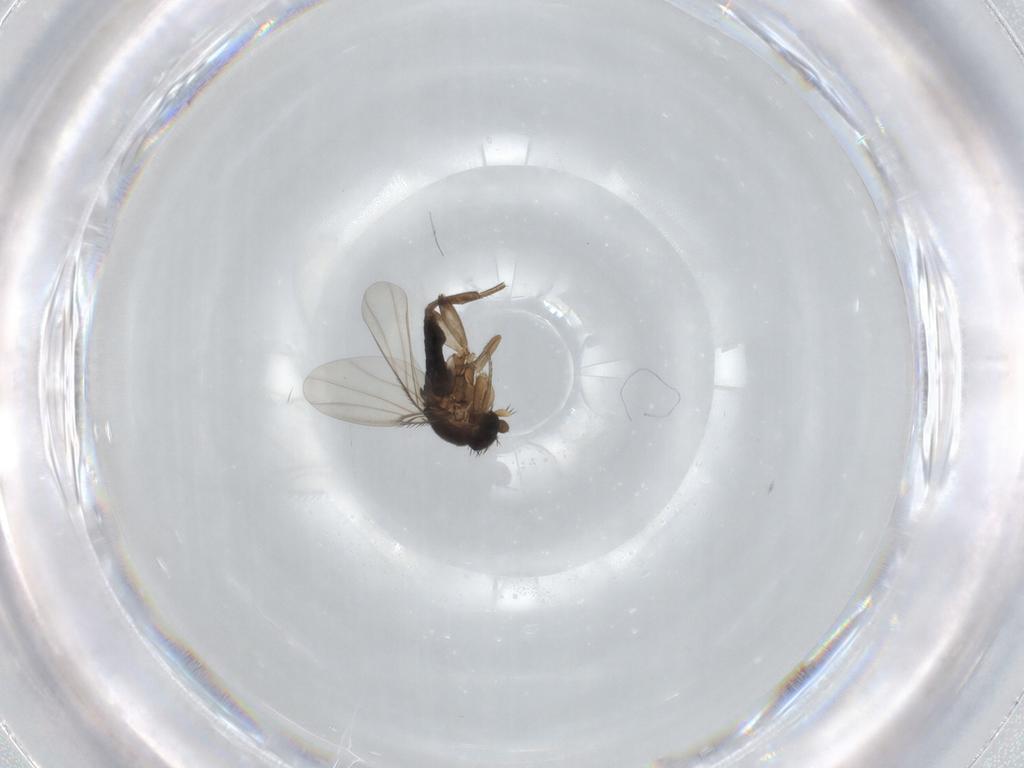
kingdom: Animalia
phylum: Arthropoda
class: Insecta
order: Diptera
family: Phoridae
